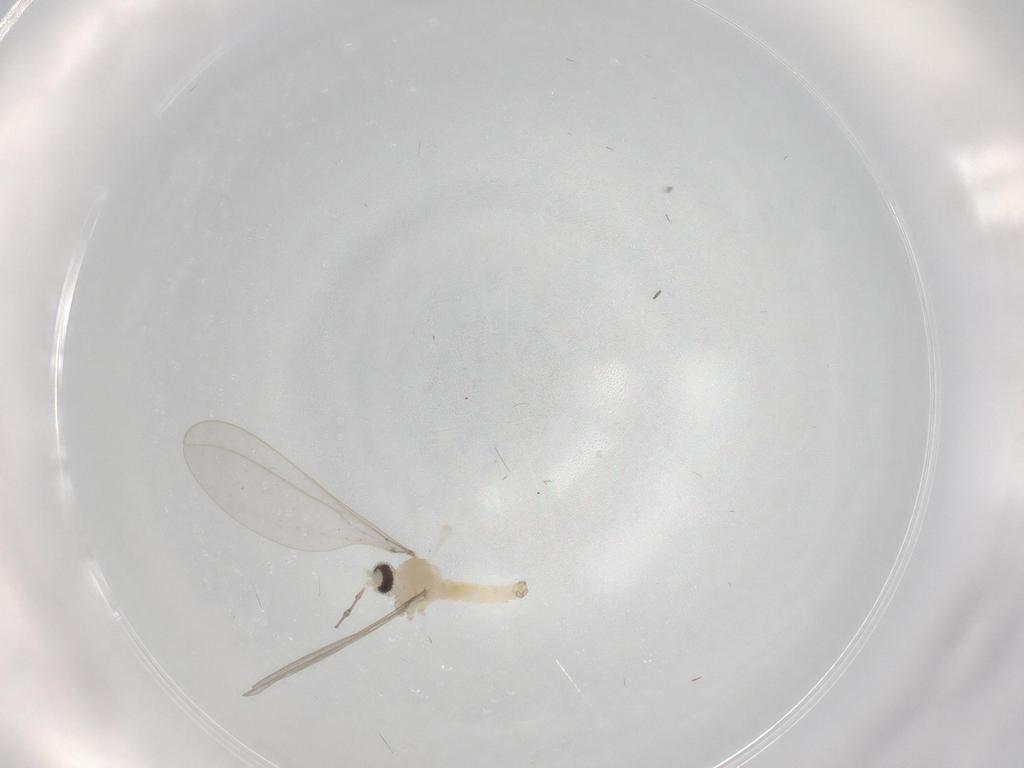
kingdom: Animalia
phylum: Arthropoda
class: Insecta
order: Diptera
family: Cecidomyiidae
